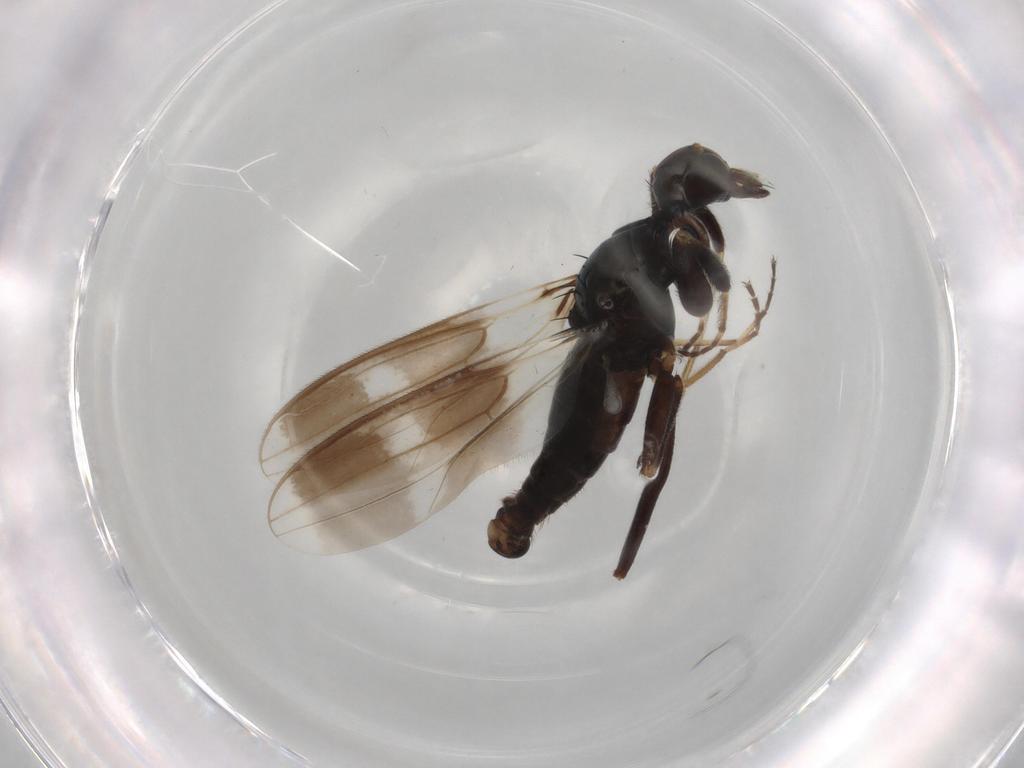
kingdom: Animalia
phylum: Arthropoda
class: Insecta
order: Diptera
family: Hybotidae
